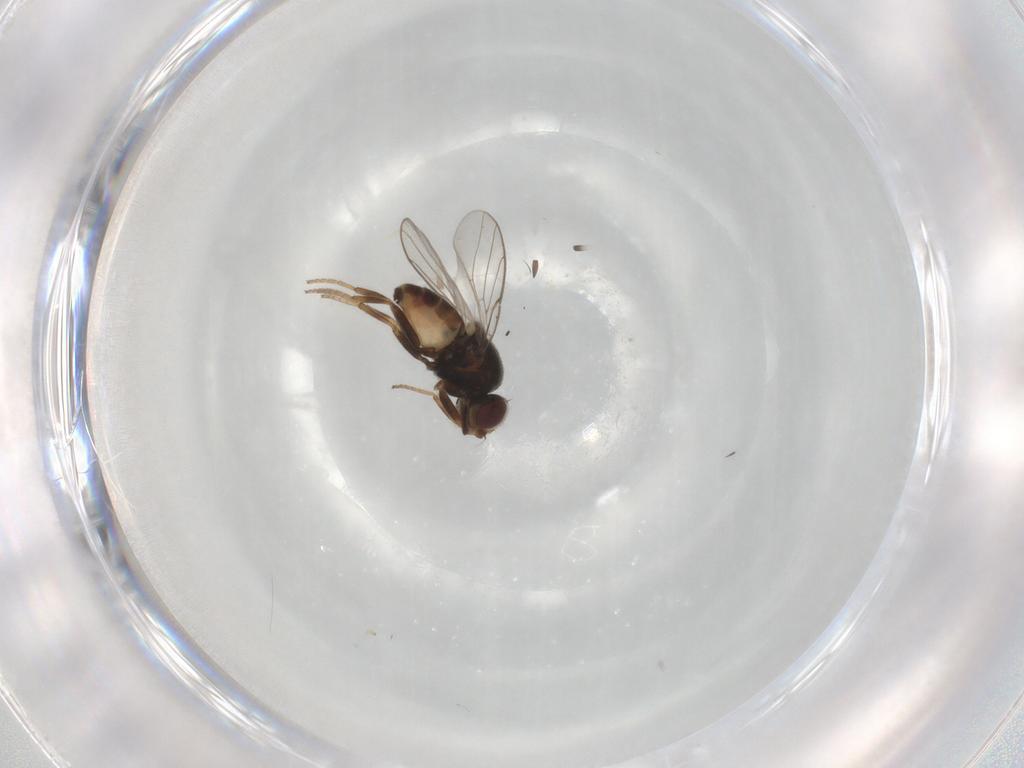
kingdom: Animalia
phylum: Arthropoda
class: Insecta
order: Diptera
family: Chloropidae
